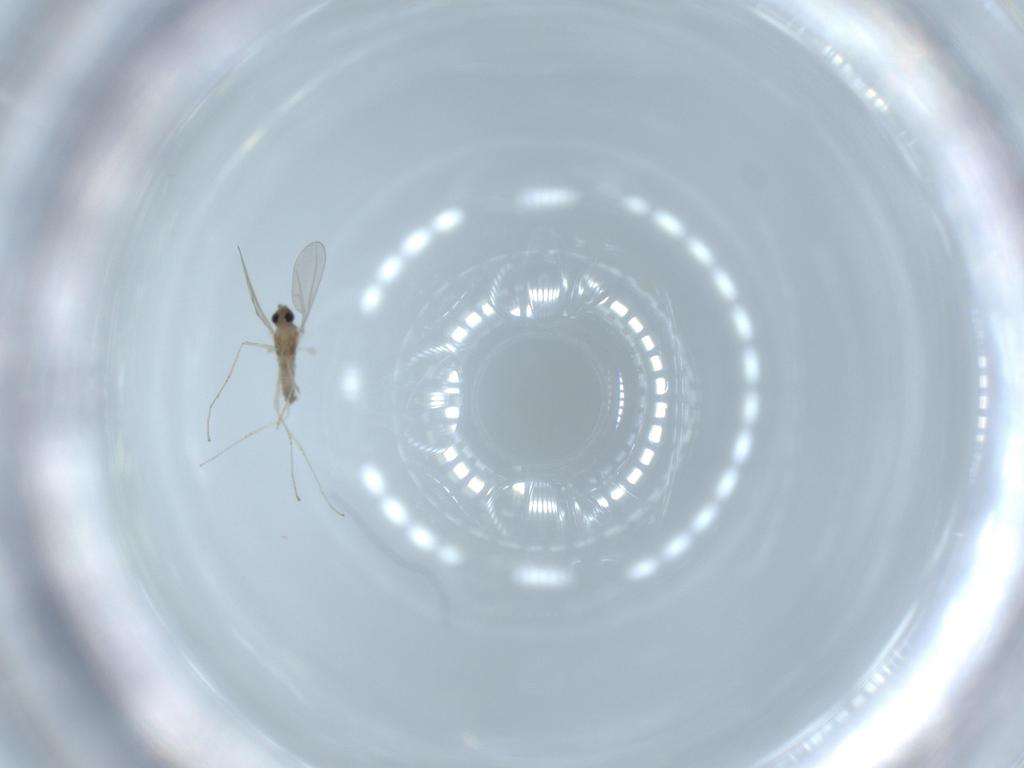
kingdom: Animalia
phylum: Arthropoda
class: Insecta
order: Diptera
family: Cecidomyiidae
